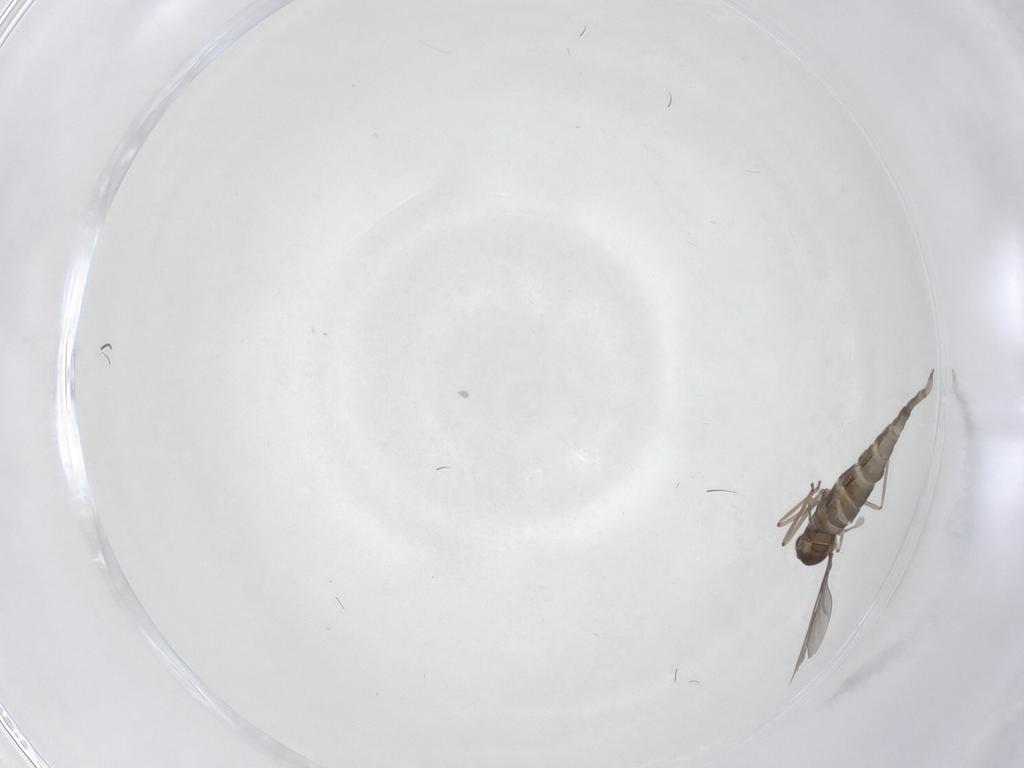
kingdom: Animalia
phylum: Arthropoda
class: Insecta
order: Diptera
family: Cecidomyiidae
